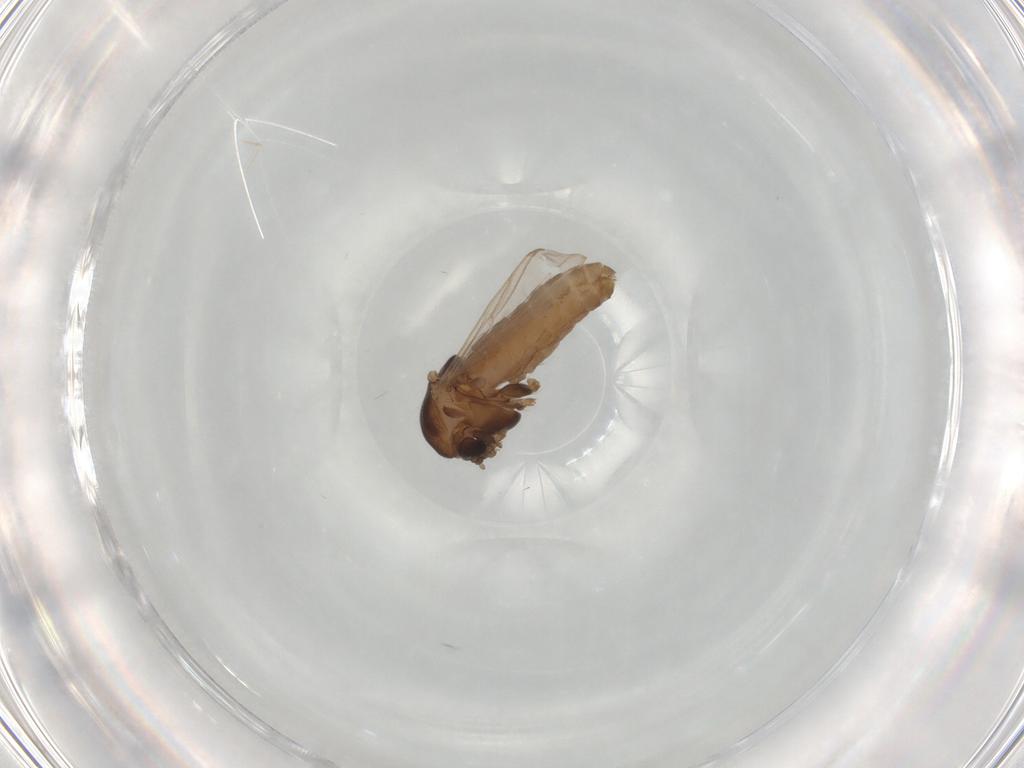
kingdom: Animalia
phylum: Arthropoda
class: Insecta
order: Diptera
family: Chironomidae
